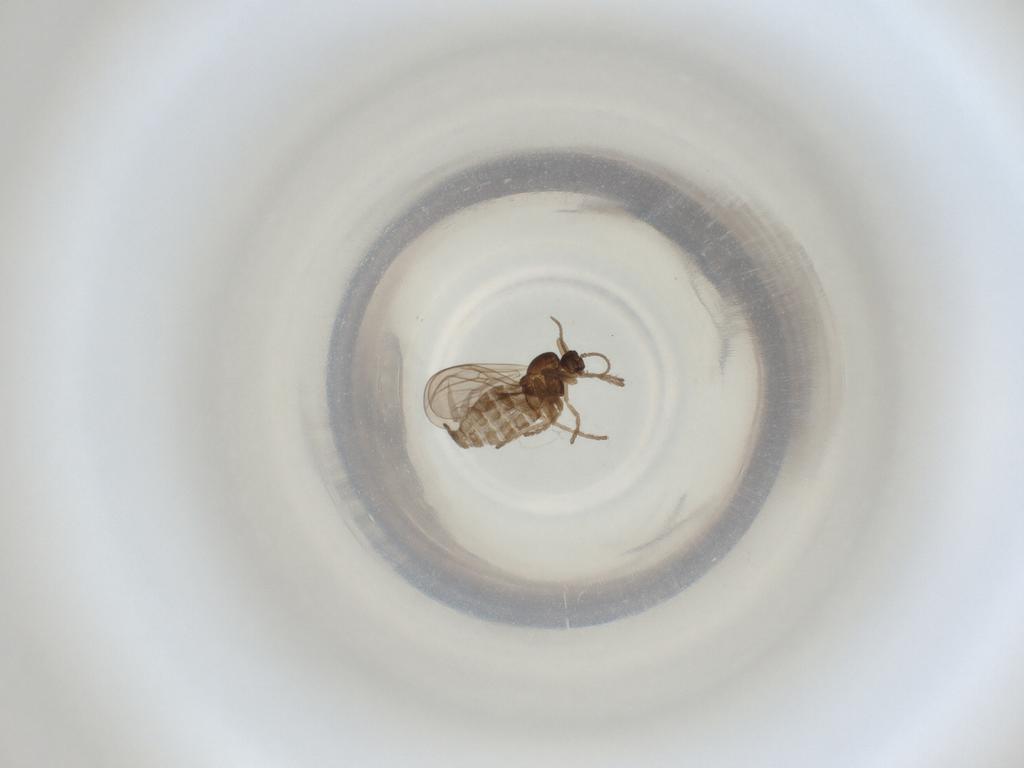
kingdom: Animalia
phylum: Arthropoda
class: Insecta
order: Diptera
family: Cecidomyiidae
